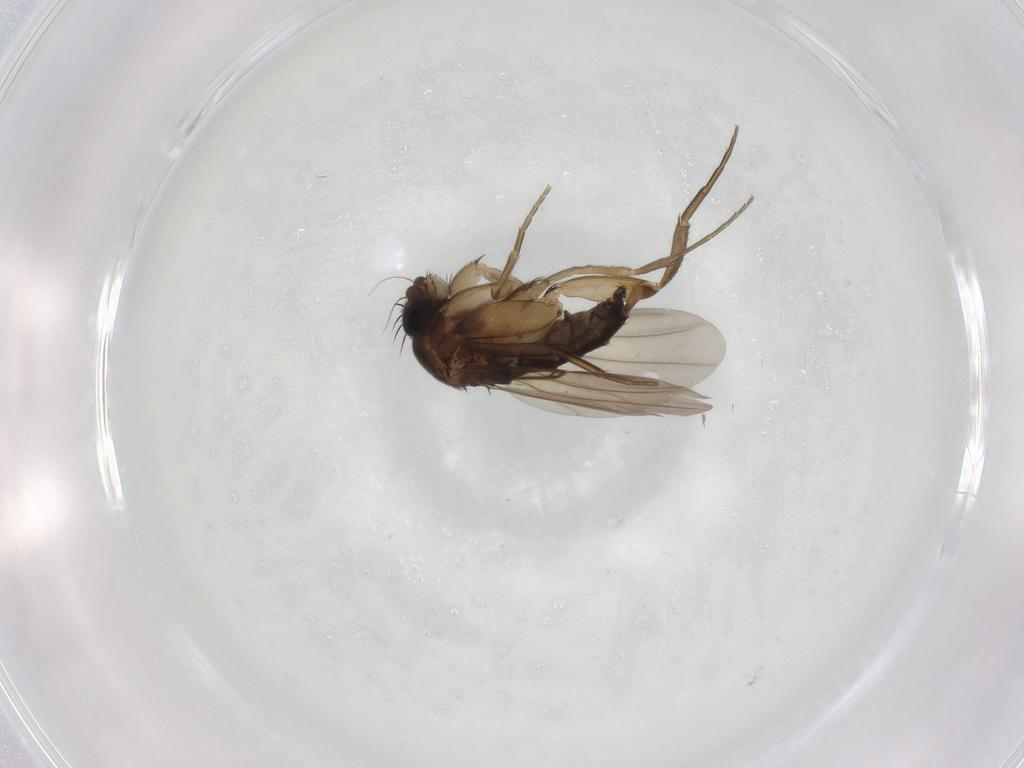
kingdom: Animalia
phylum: Arthropoda
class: Insecta
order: Diptera
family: Phoridae
